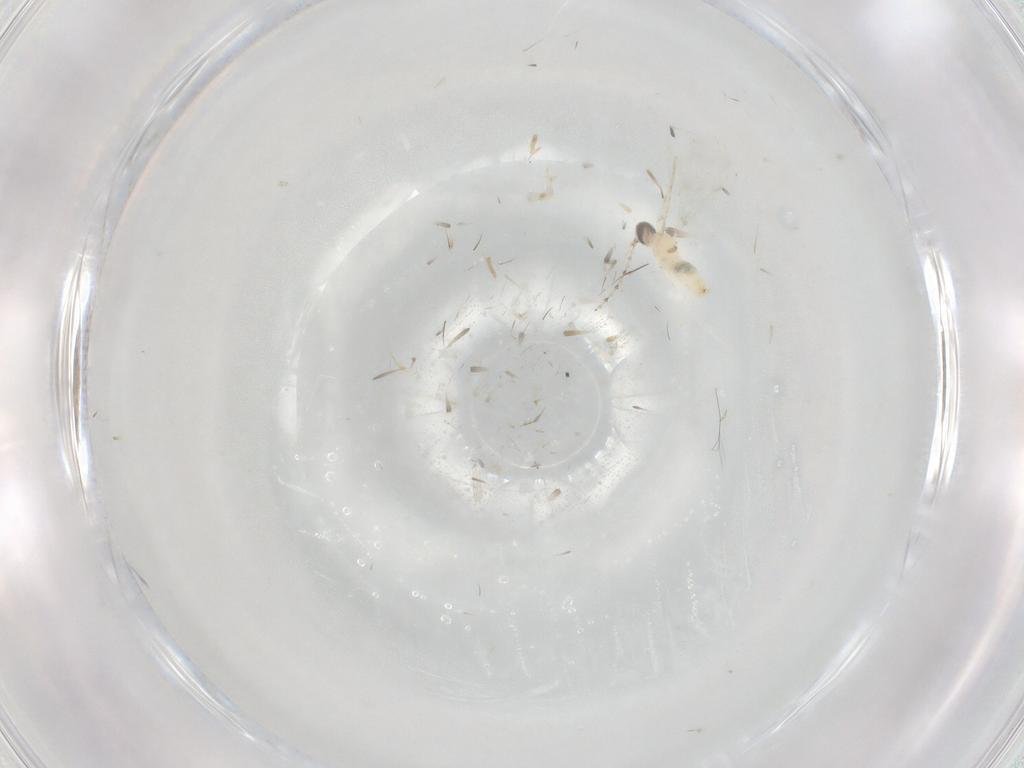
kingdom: Animalia
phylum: Arthropoda
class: Insecta
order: Diptera
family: Cecidomyiidae
